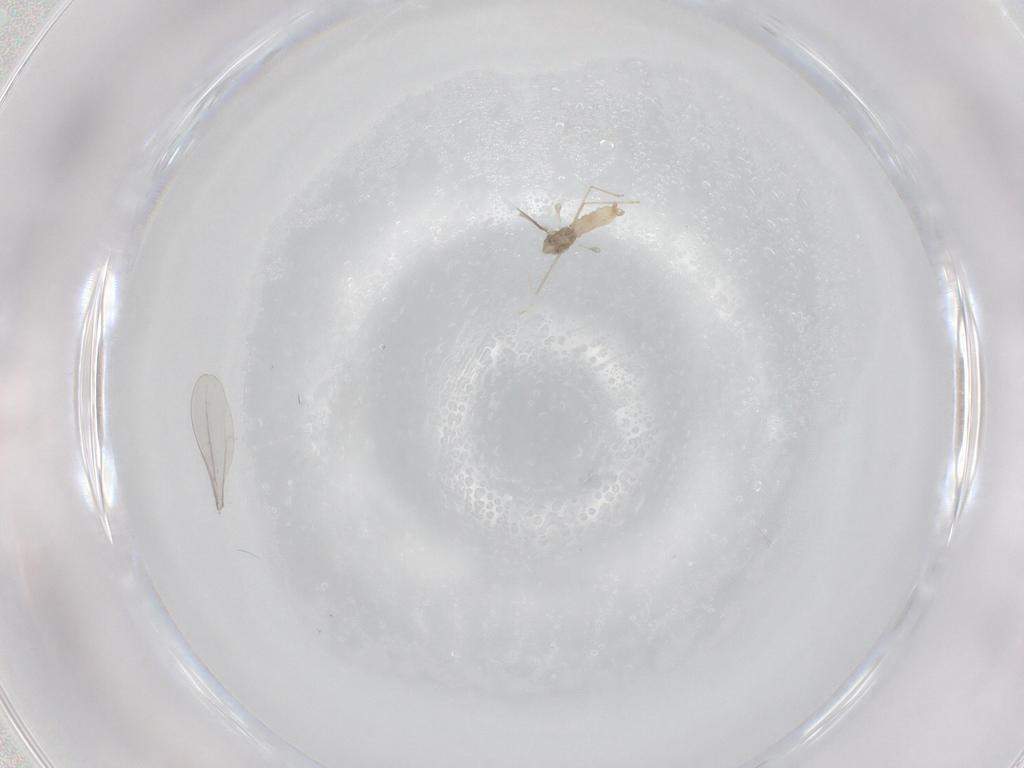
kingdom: Animalia
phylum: Arthropoda
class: Insecta
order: Diptera
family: Cecidomyiidae
